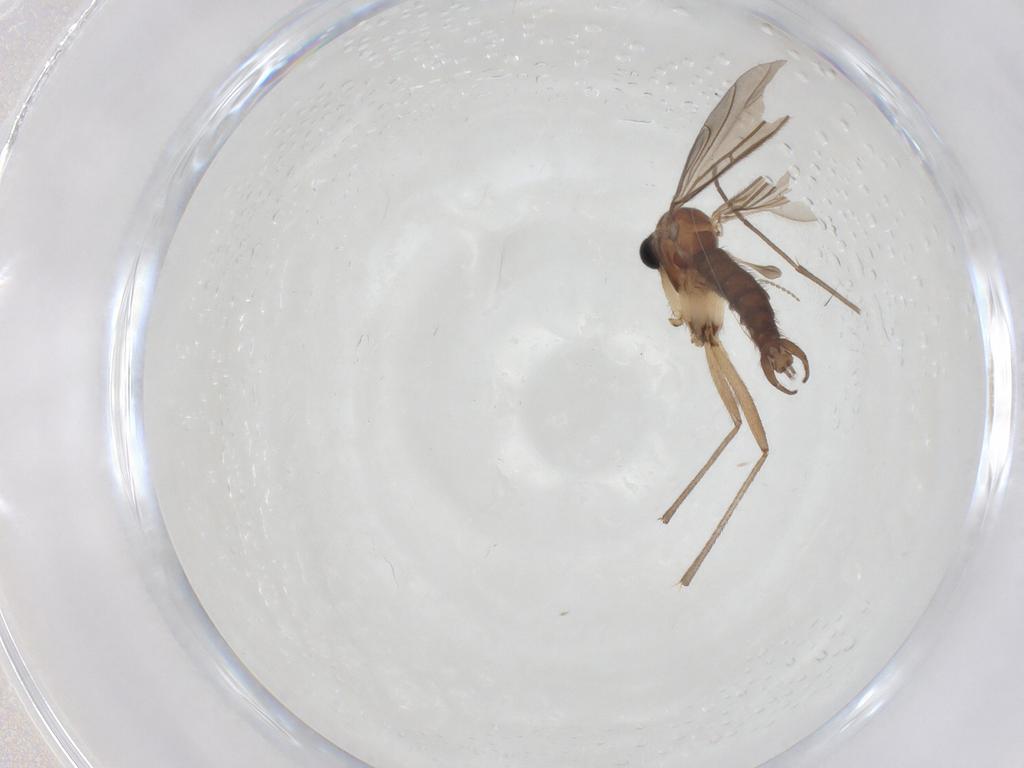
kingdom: Animalia
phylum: Arthropoda
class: Insecta
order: Diptera
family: Sciaridae
